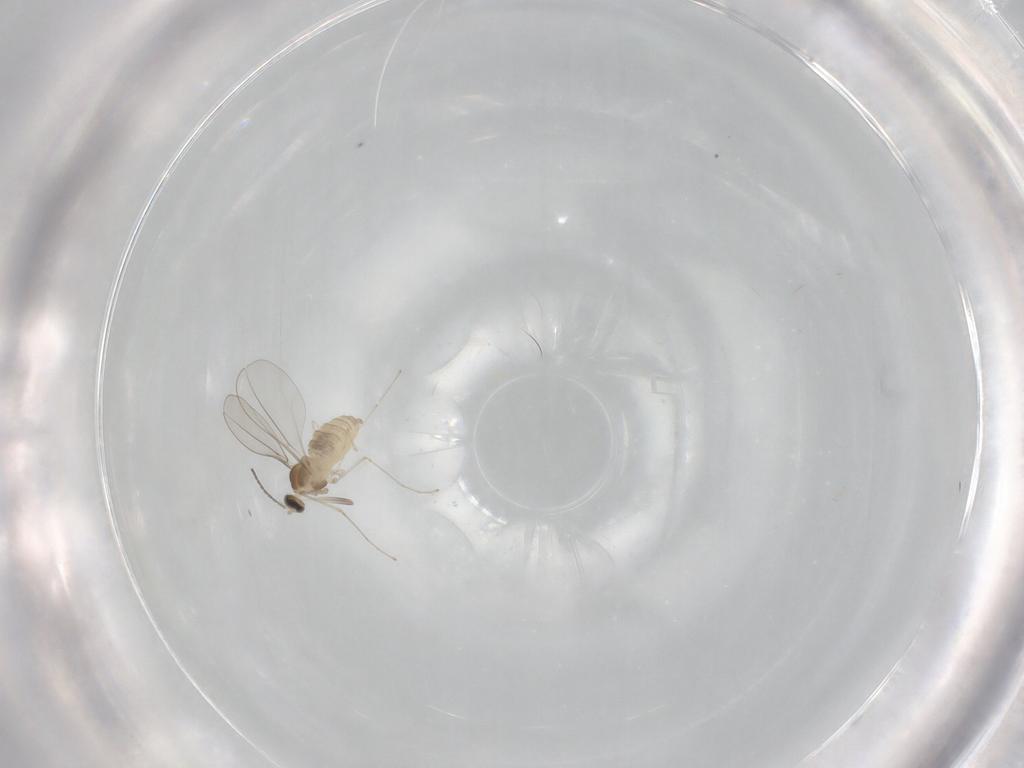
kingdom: Animalia
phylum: Arthropoda
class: Insecta
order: Diptera
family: Cecidomyiidae
